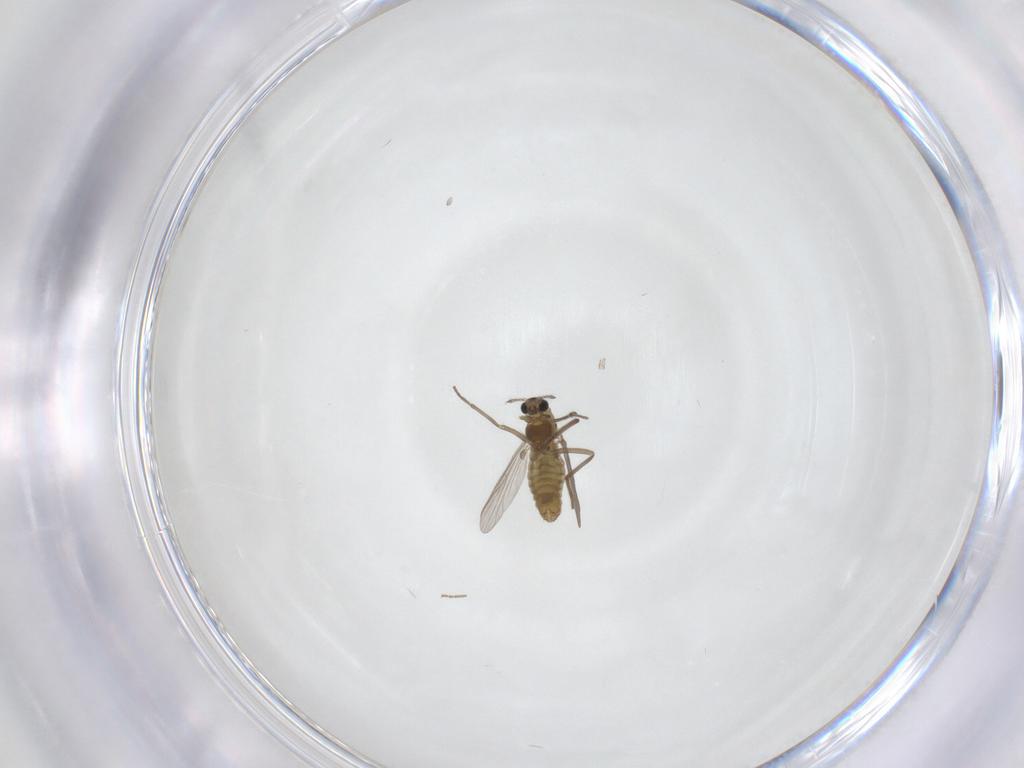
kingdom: Animalia
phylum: Arthropoda
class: Insecta
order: Diptera
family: Chironomidae
